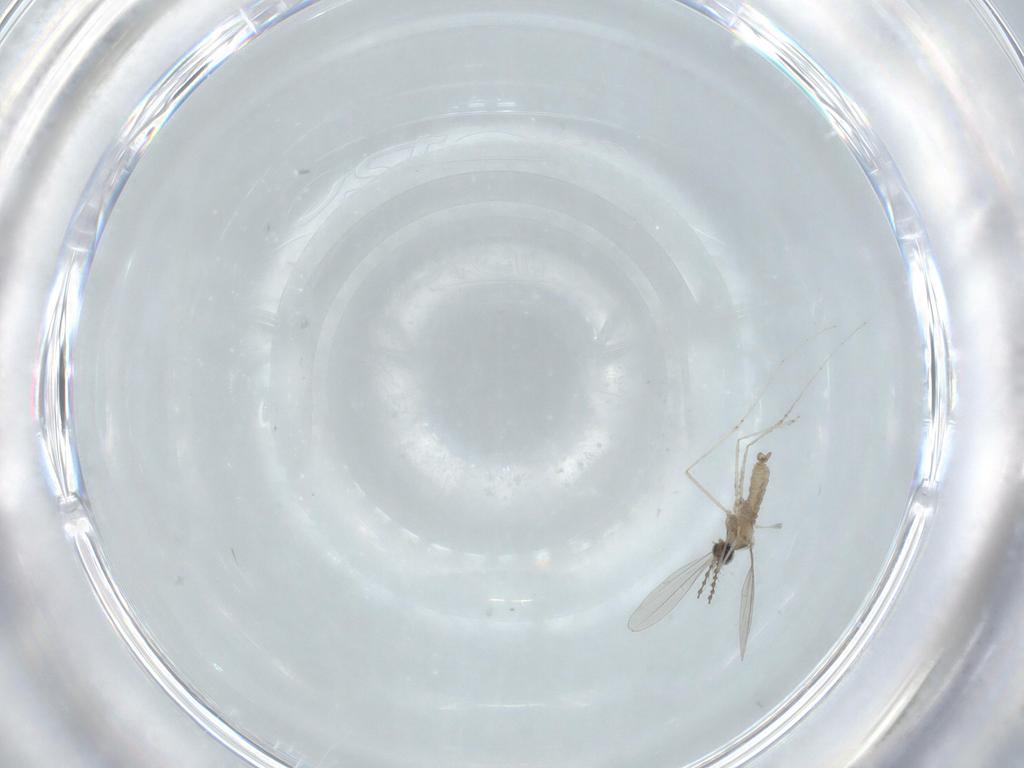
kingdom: Animalia
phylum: Arthropoda
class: Insecta
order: Diptera
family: Cecidomyiidae
